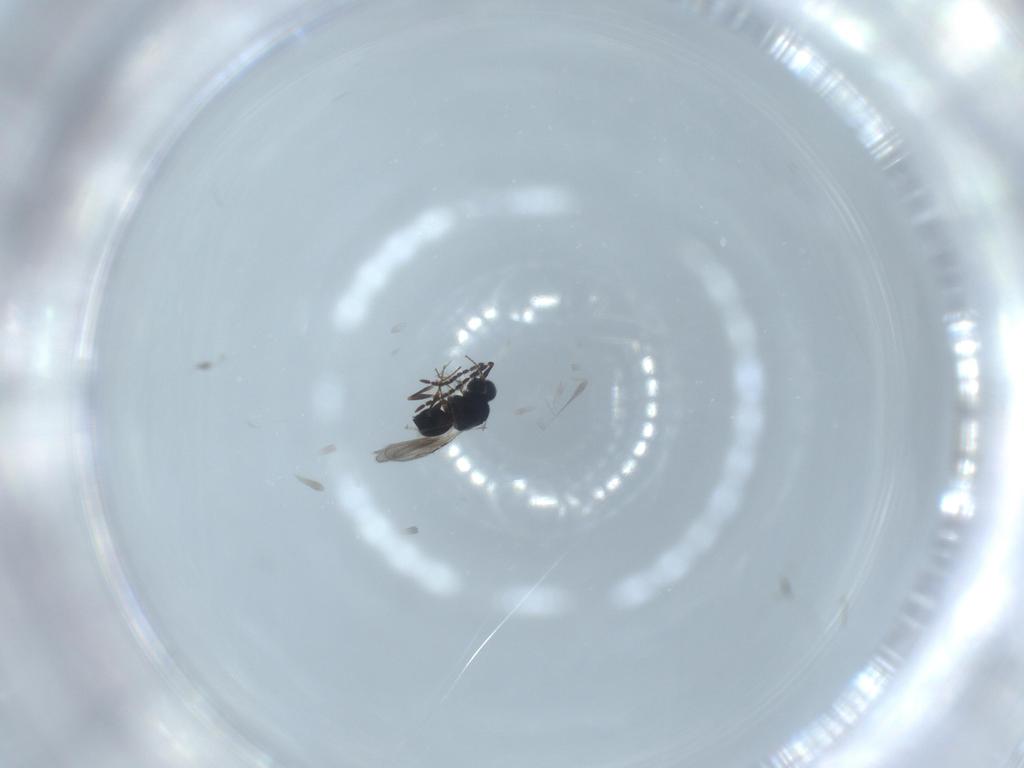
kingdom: Animalia
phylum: Arthropoda
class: Insecta
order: Hymenoptera
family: Ceraphronidae
